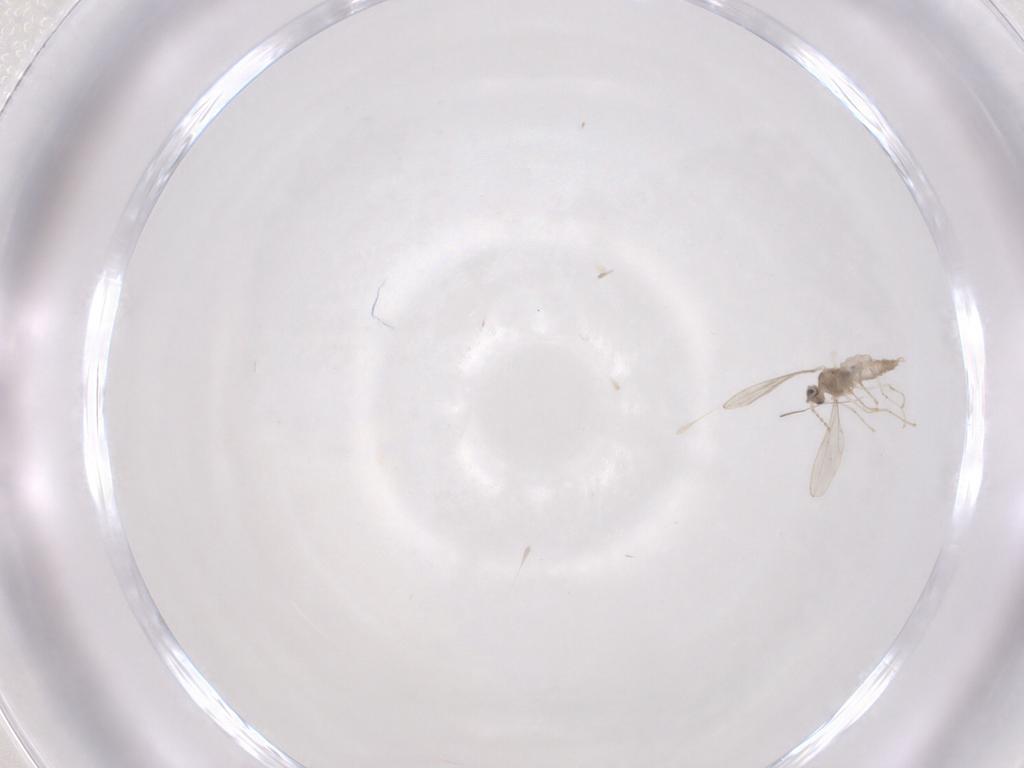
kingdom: Animalia
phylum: Arthropoda
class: Insecta
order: Diptera
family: Cecidomyiidae
